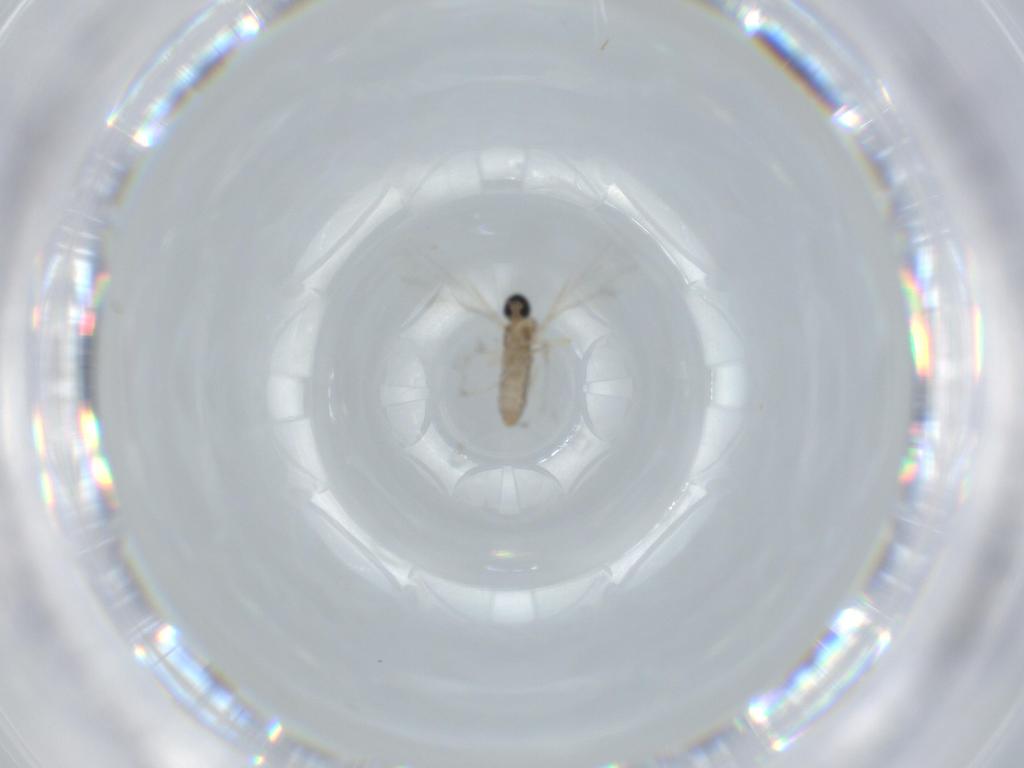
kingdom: Animalia
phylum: Arthropoda
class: Insecta
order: Diptera
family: Cecidomyiidae
